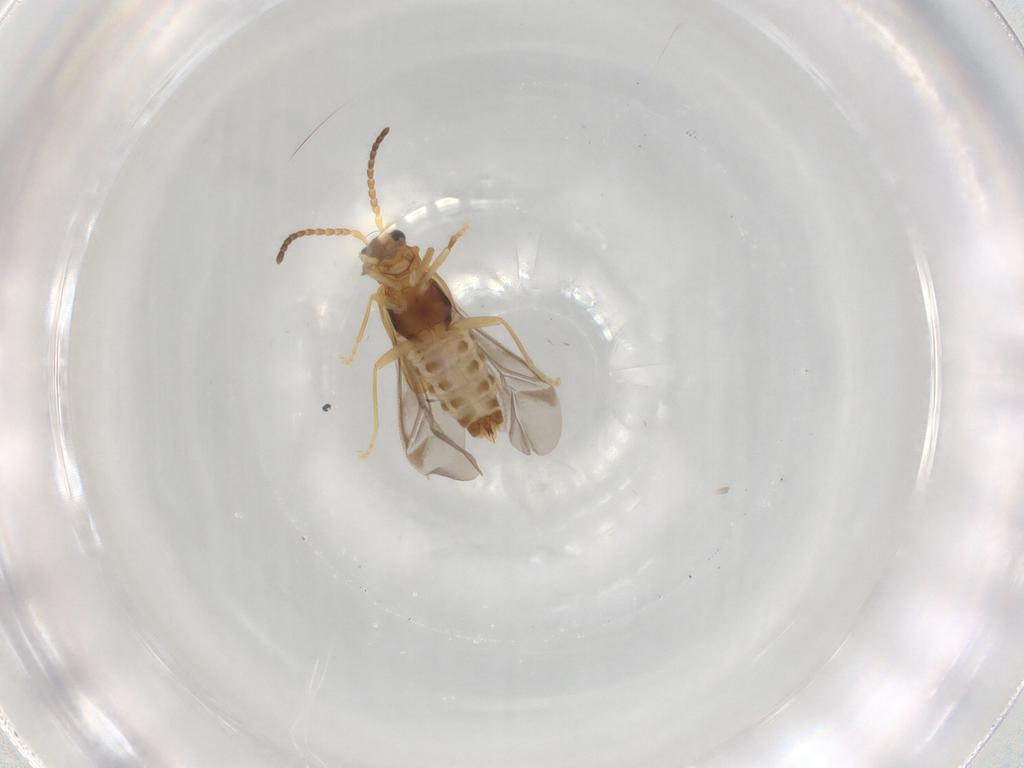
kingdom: Animalia
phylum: Arthropoda
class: Insecta
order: Coleoptera
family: Cantharidae
